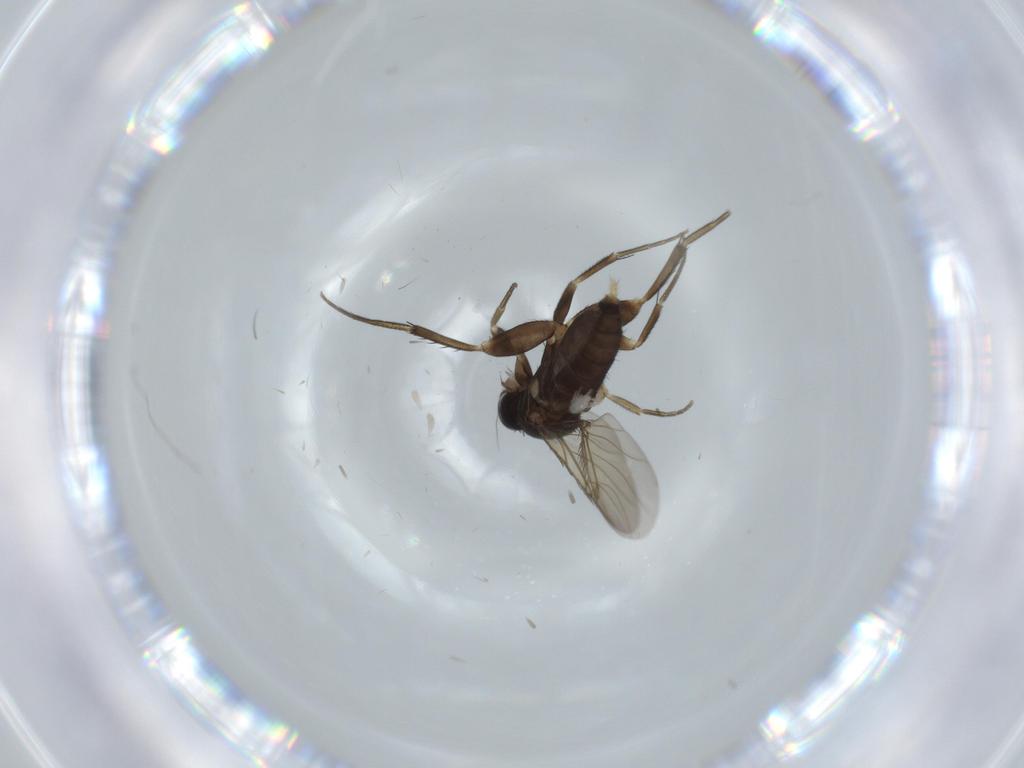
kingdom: Animalia
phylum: Arthropoda
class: Insecta
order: Diptera
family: Phoridae
